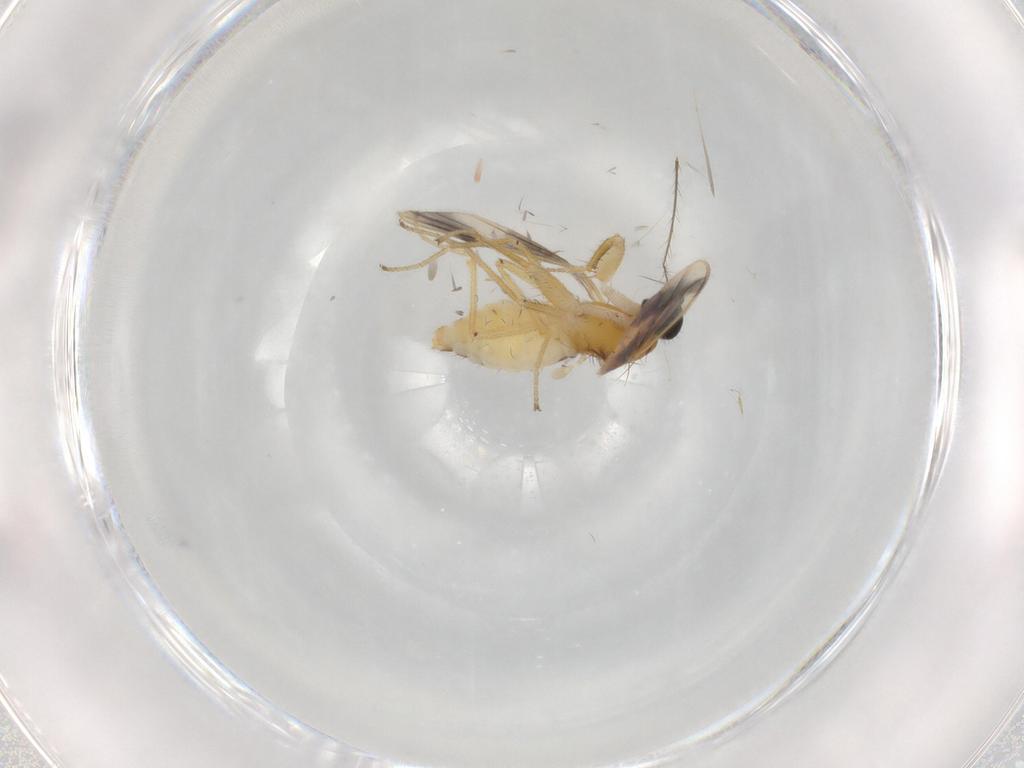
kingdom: Animalia
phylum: Arthropoda
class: Insecta
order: Diptera
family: Empididae
